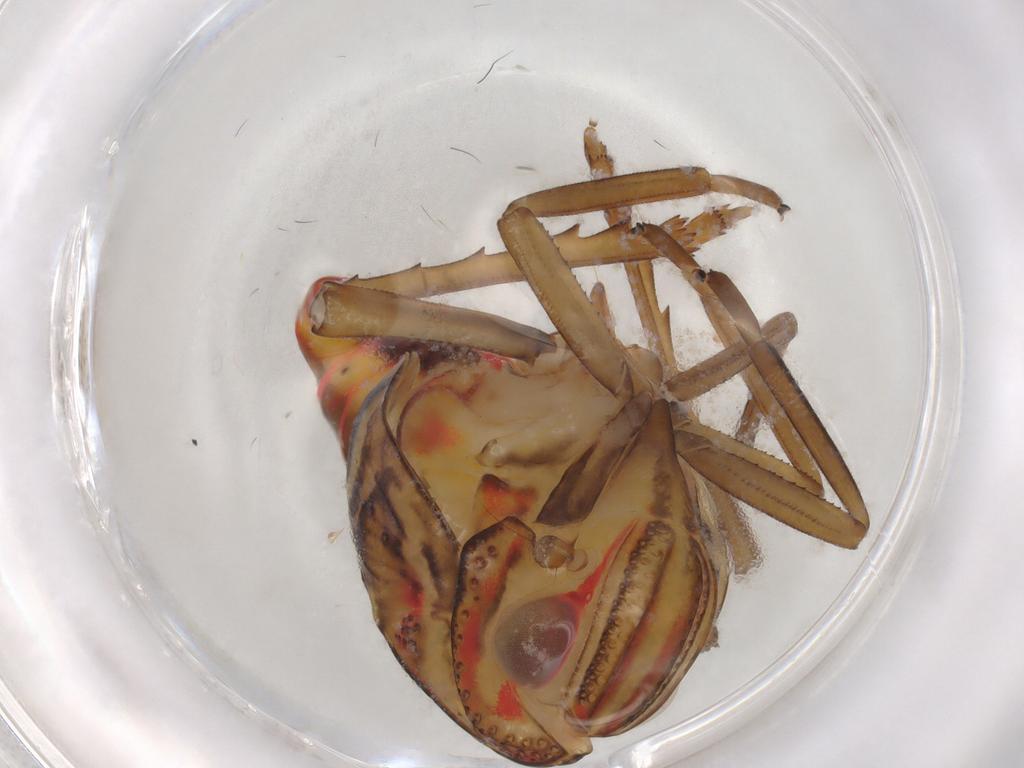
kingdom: Animalia
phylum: Arthropoda
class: Insecta
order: Hemiptera
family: Nogodinidae
